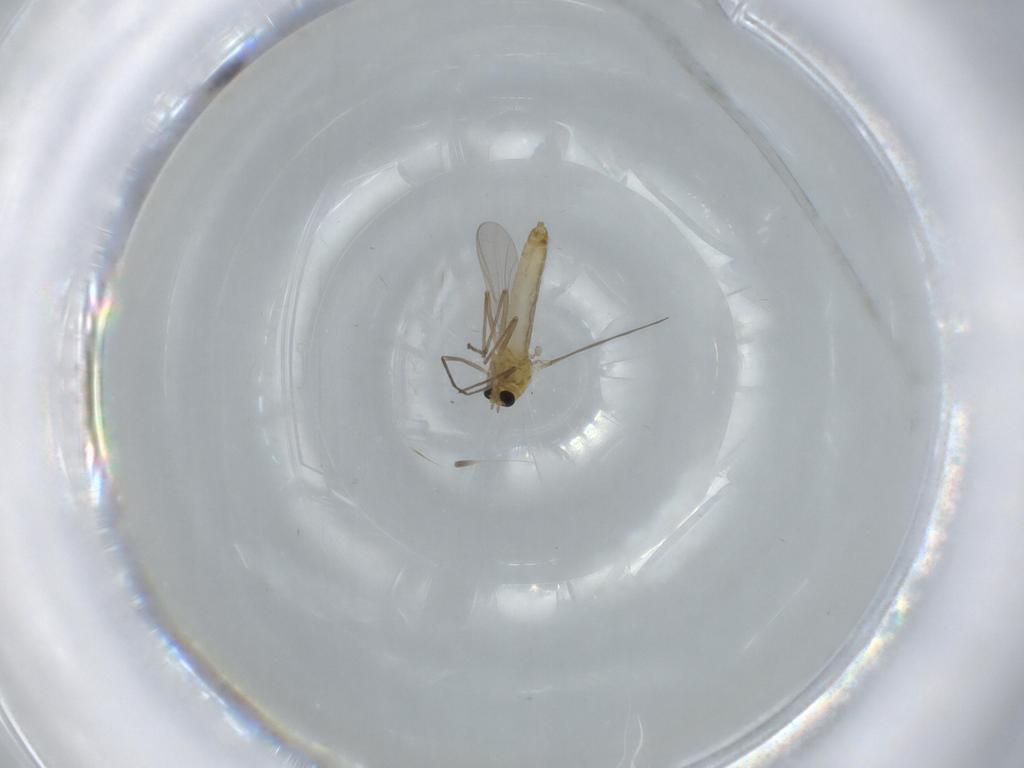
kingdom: Animalia
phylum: Arthropoda
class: Insecta
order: Diptera
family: Chironomidae
